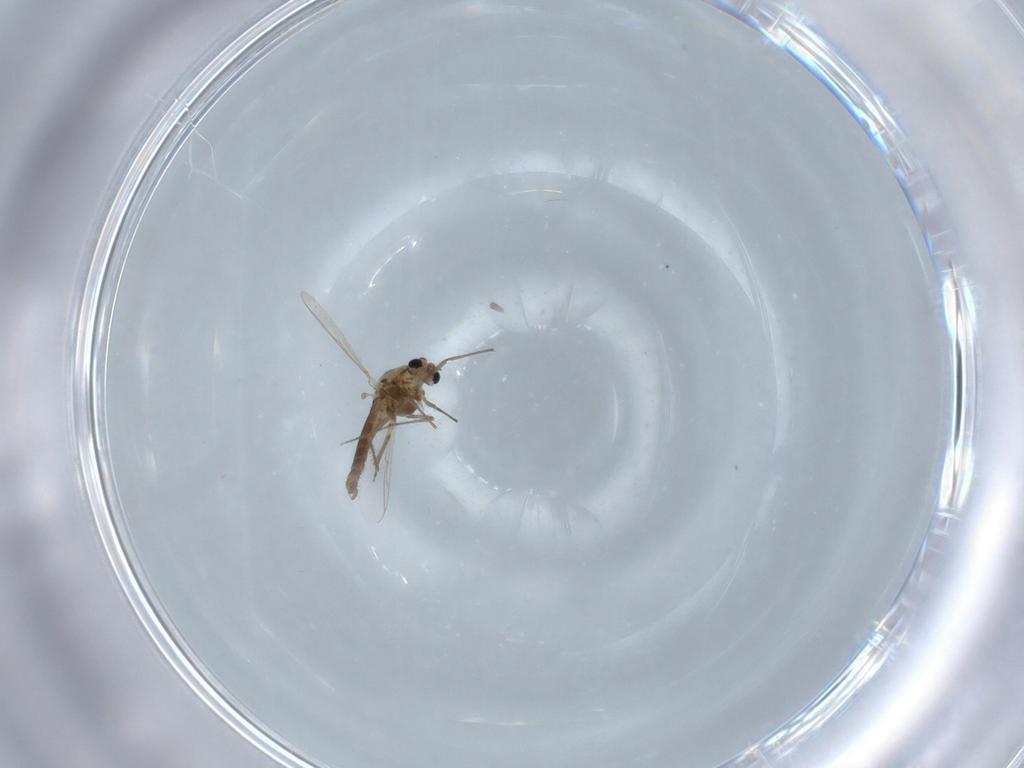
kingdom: Animalia
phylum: Arthropoda
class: Insecta
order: Diptera
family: Chironomidae
